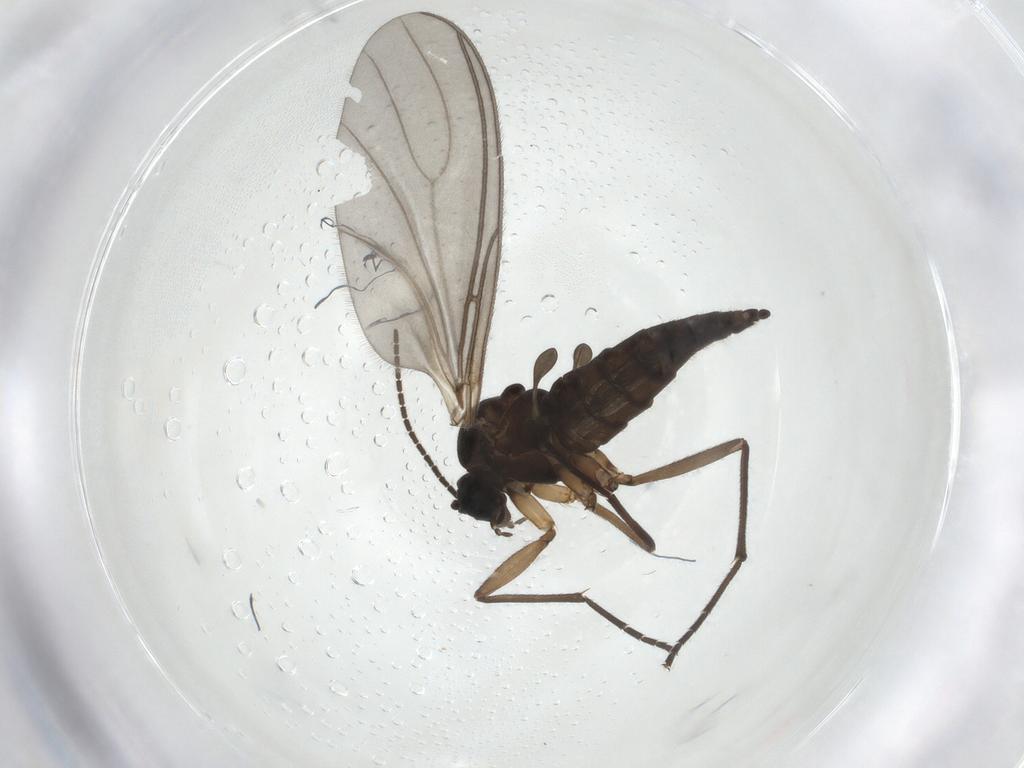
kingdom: Animalia
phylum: Arthropoda
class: Insecta
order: Diptera
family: Sciaridae
